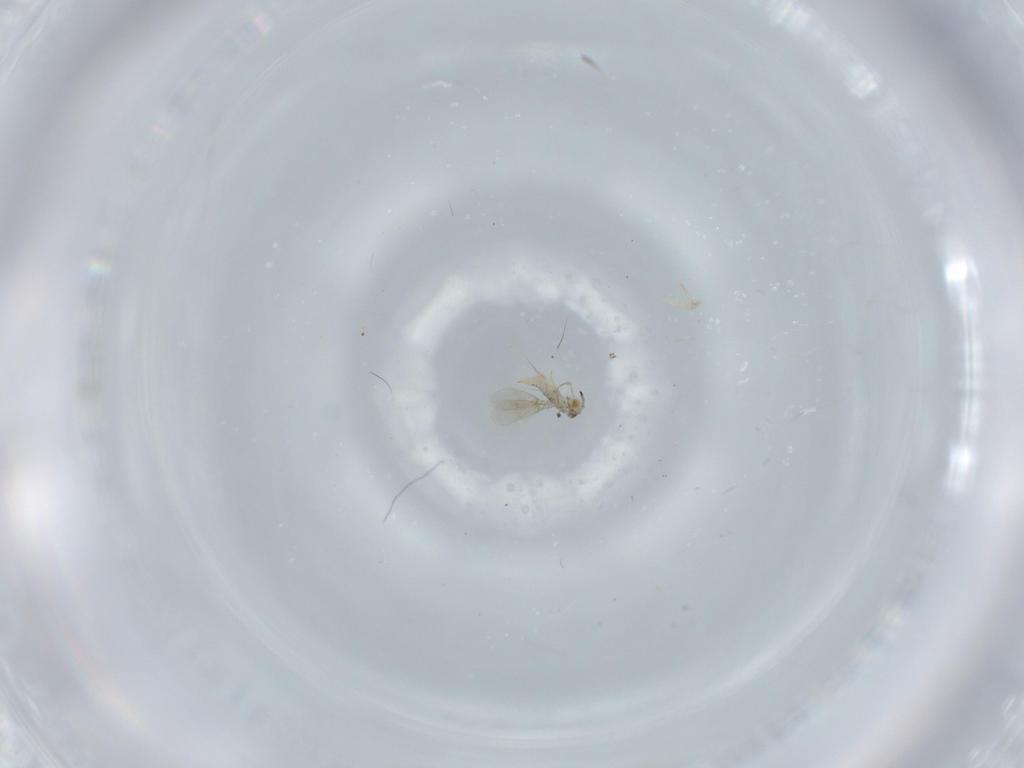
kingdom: Animalia
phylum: Arthropoda
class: Insecta
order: Hymenoptera
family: Aphelinidae
